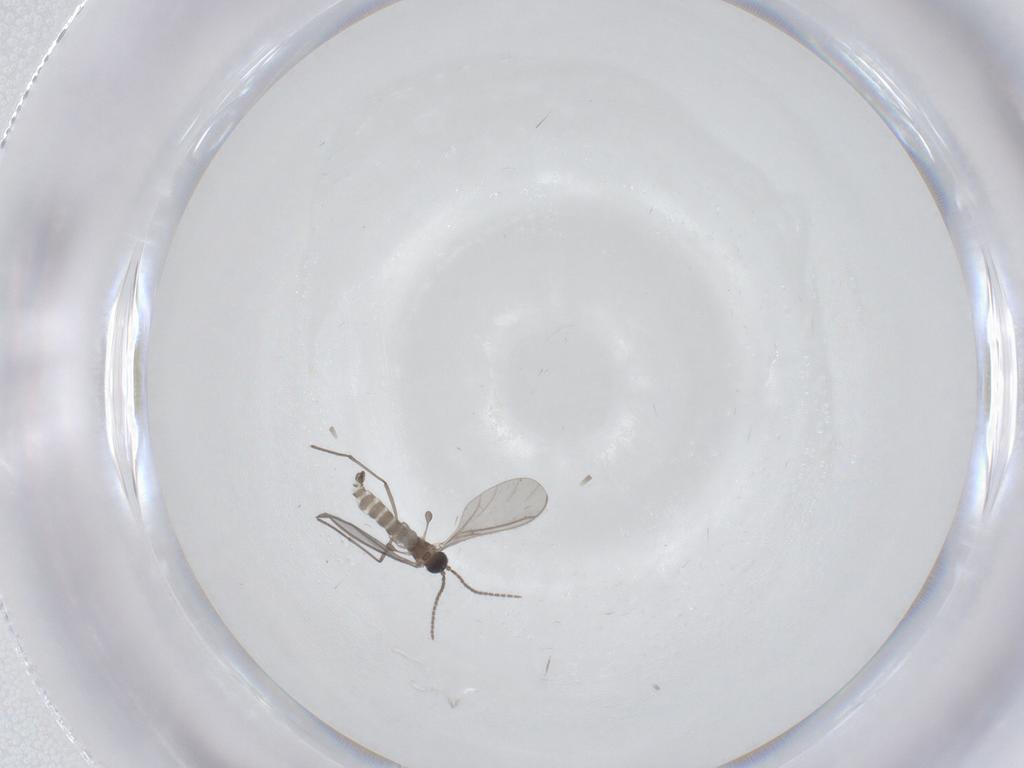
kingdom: Animalia
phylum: Arthropoda
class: Insecta
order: Diptera
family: Sciaridae
